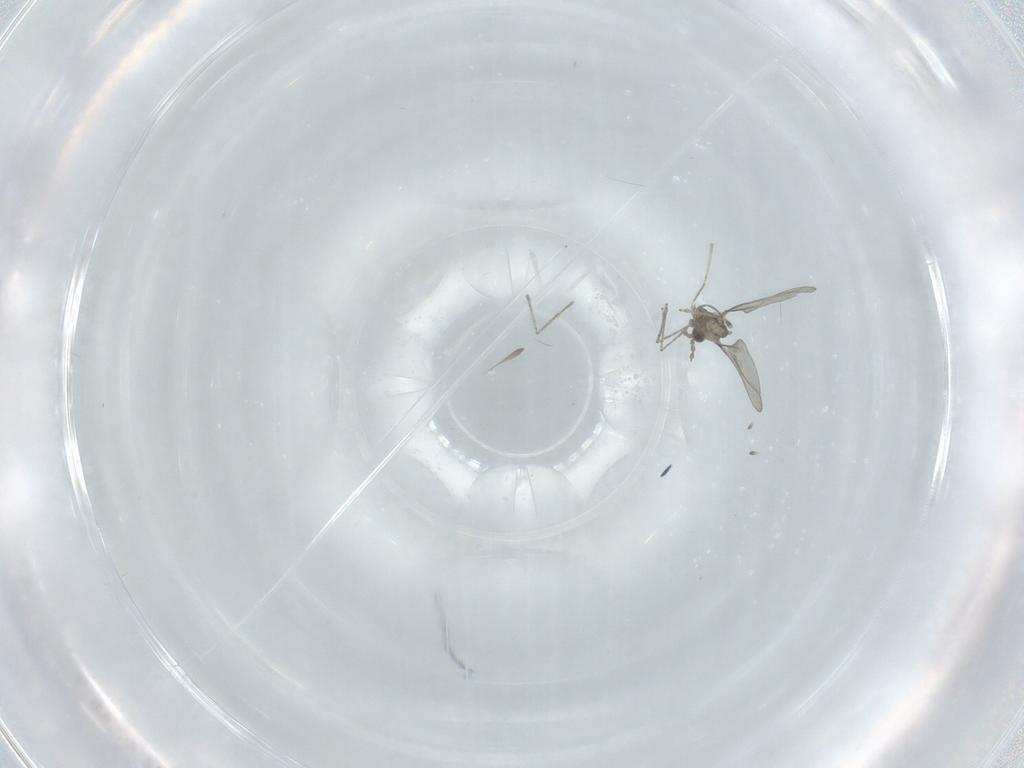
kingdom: Animalia
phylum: Arthropoda
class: Insecta
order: Diptera
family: Cecidomyiidae
